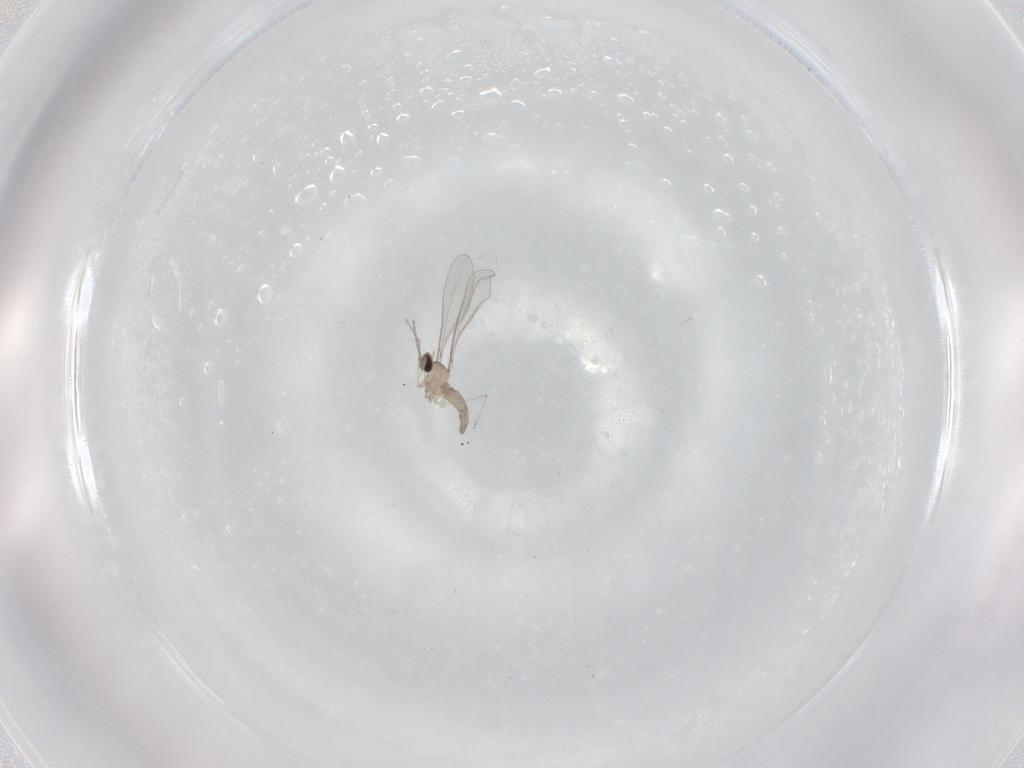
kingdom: Animalia
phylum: Arthropoda
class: Insecta
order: Diptera
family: Cecidomyiidae
